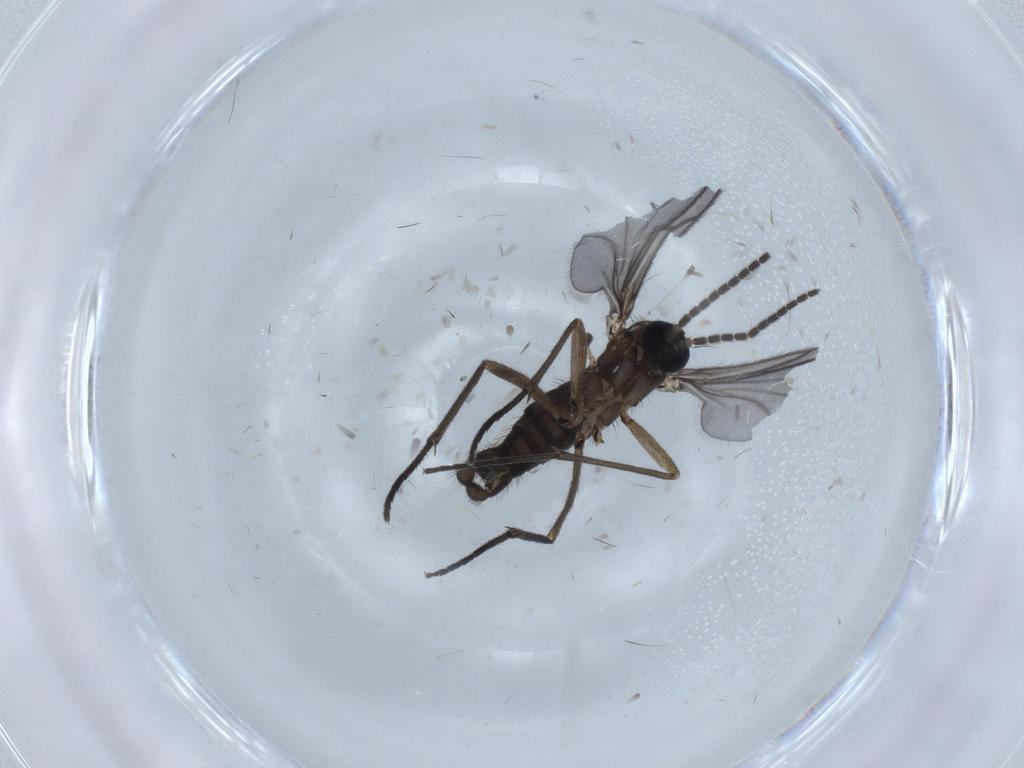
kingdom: Animalia
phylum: Arthropoda
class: Insecta
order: Diptera
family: Sciaridae
